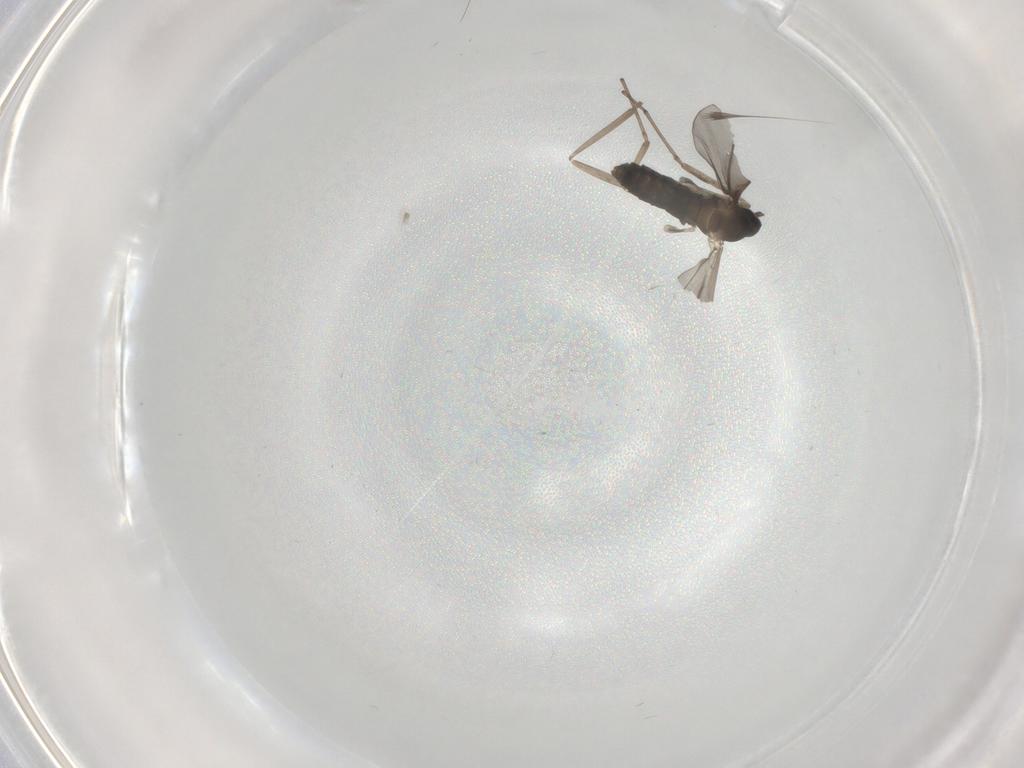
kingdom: Animalia
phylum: Arthropoda
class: Insecta
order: Diptera
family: Cecidomyiidae
